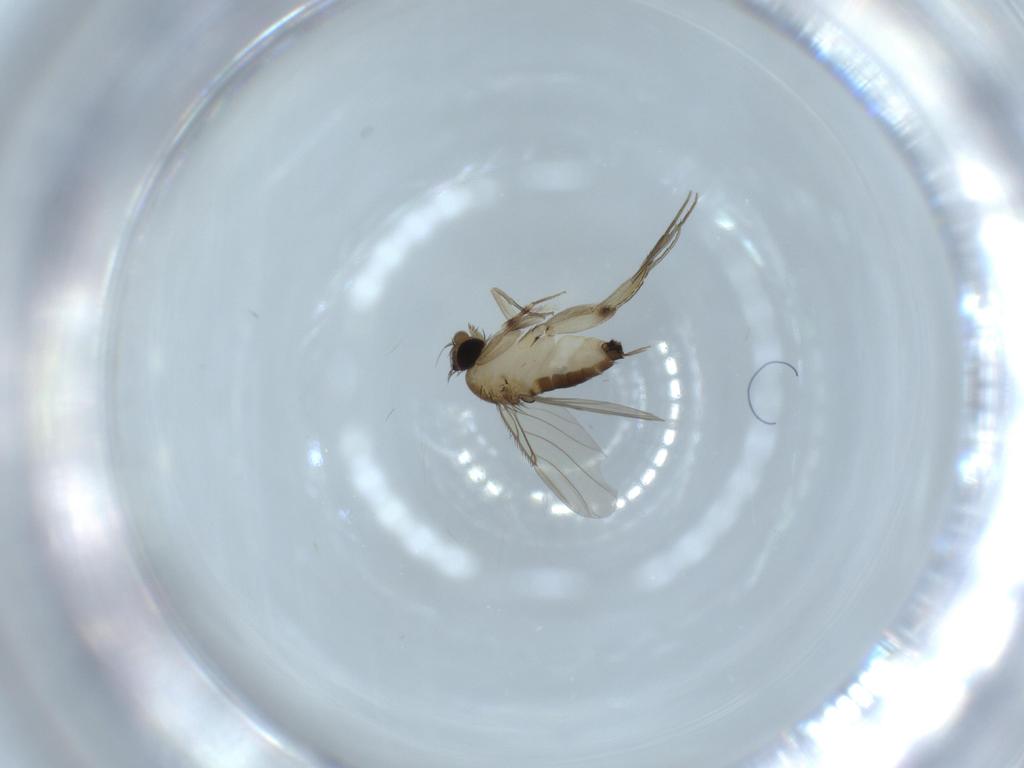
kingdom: Animalia
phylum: Arthropoda
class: Insecta
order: Diptera
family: Phoridae
